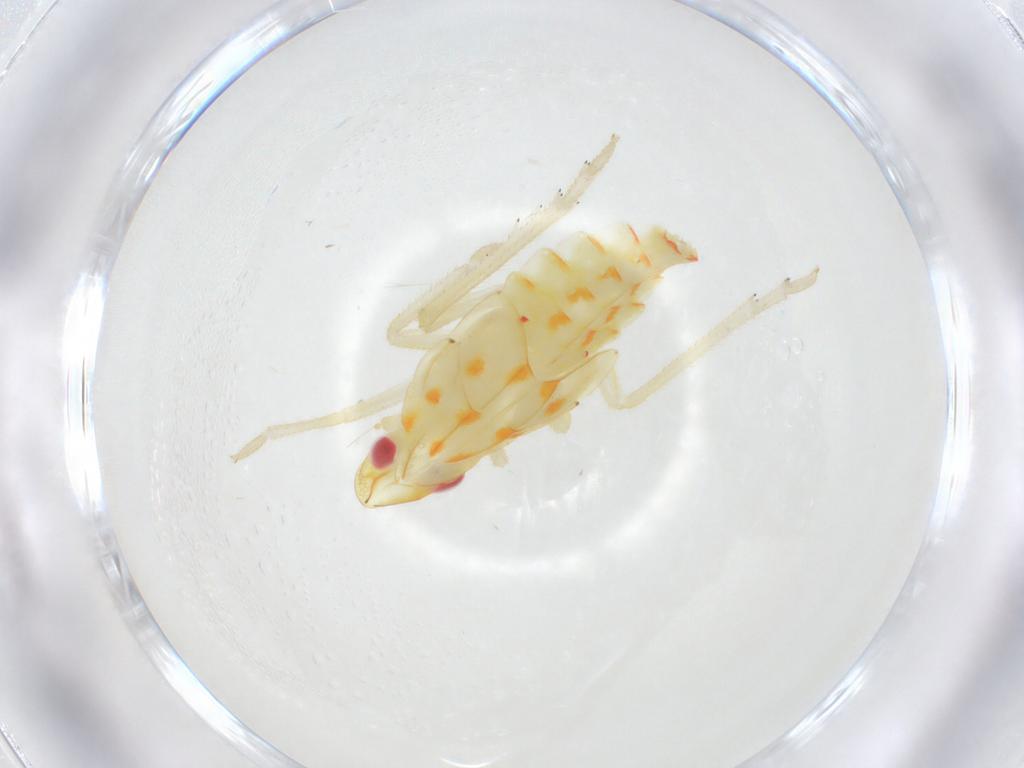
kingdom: Animalia
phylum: Arthropoda
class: Insecta
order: Hemiptera
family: Tropiduchidae
